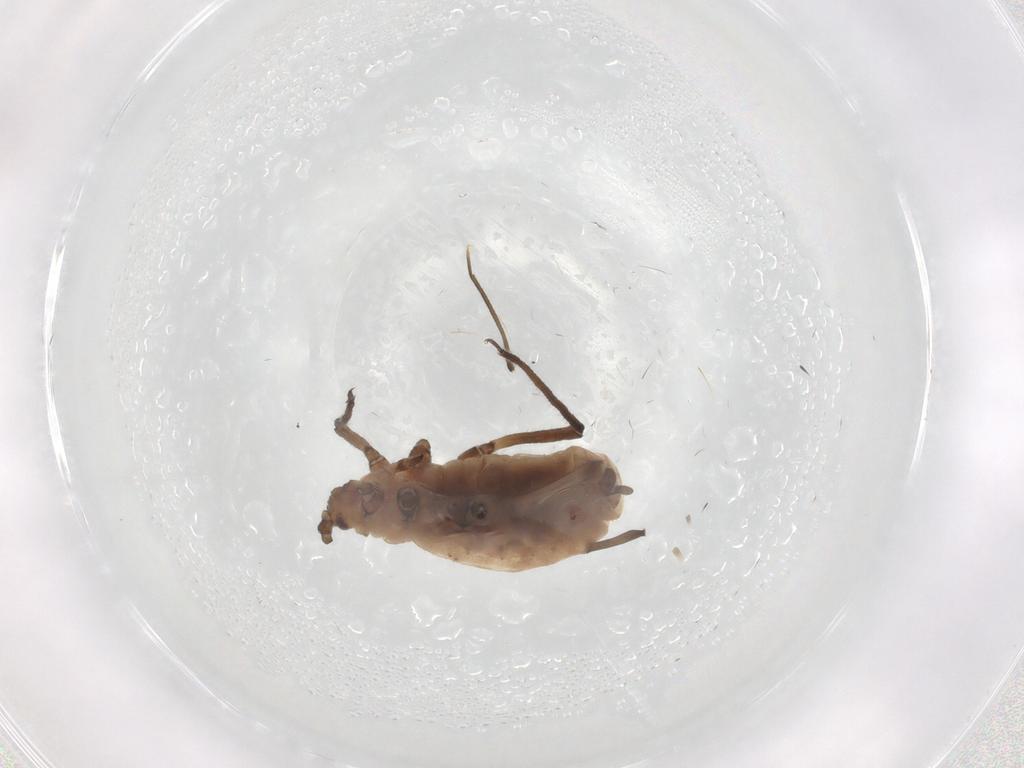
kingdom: Animalia
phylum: Arthropoda
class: Insecta
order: Hemiptera
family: Aphididae
